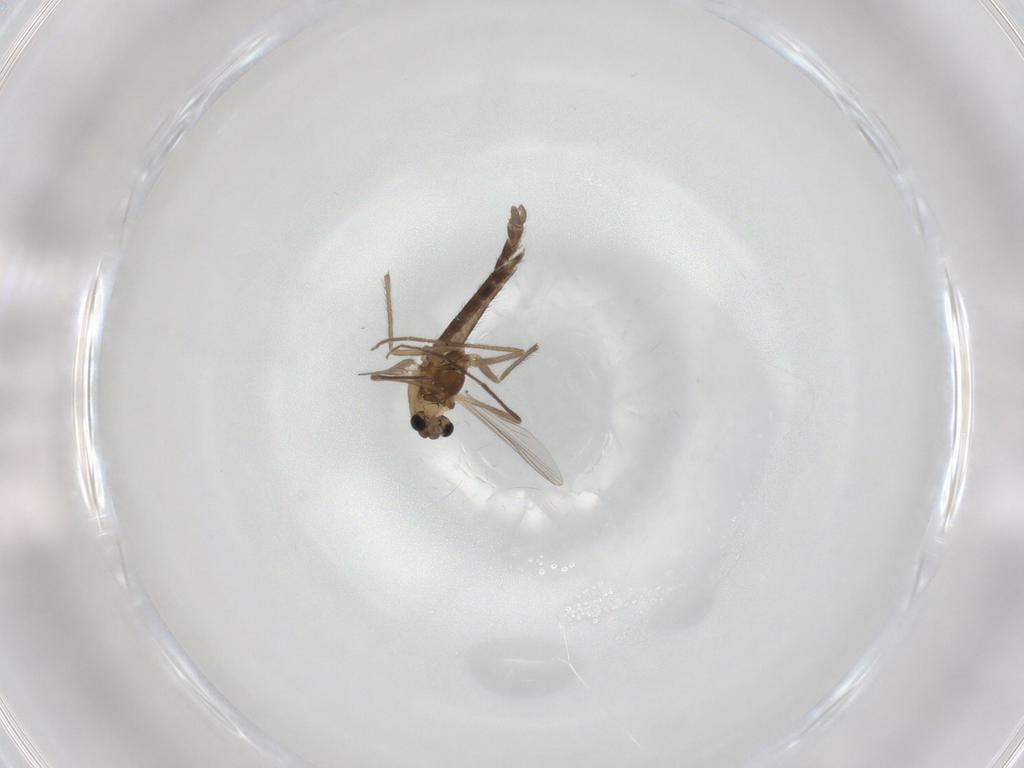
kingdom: Animalia
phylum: Arthropoda
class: Insecta
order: Diptera
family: Chironomidae
